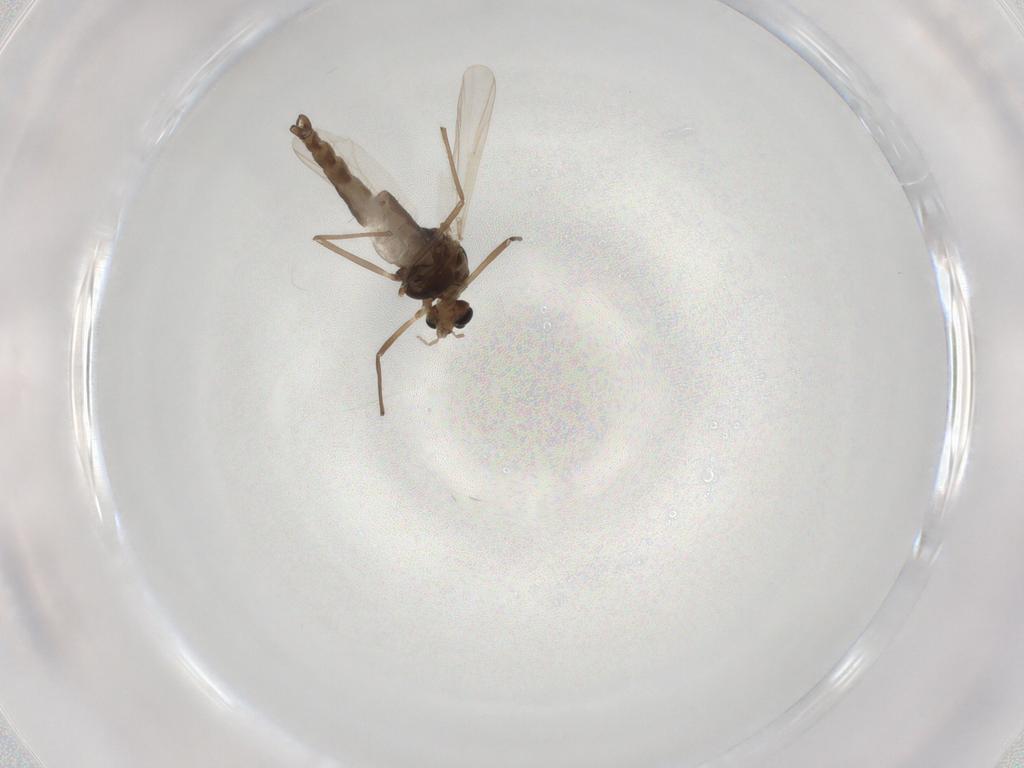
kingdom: Animalia
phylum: Arthropoda
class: Insecta
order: Diptera
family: Chironomidae
